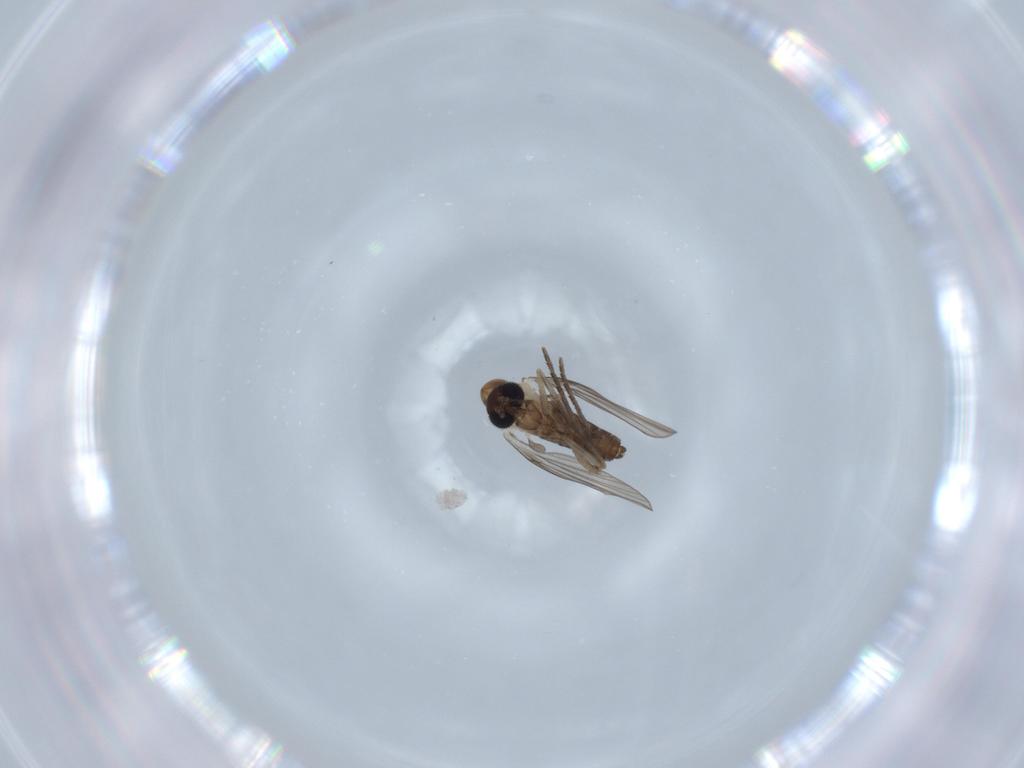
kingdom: Animalia
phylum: Arthropoda
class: Insecta
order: Diptera
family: Psychodidae
